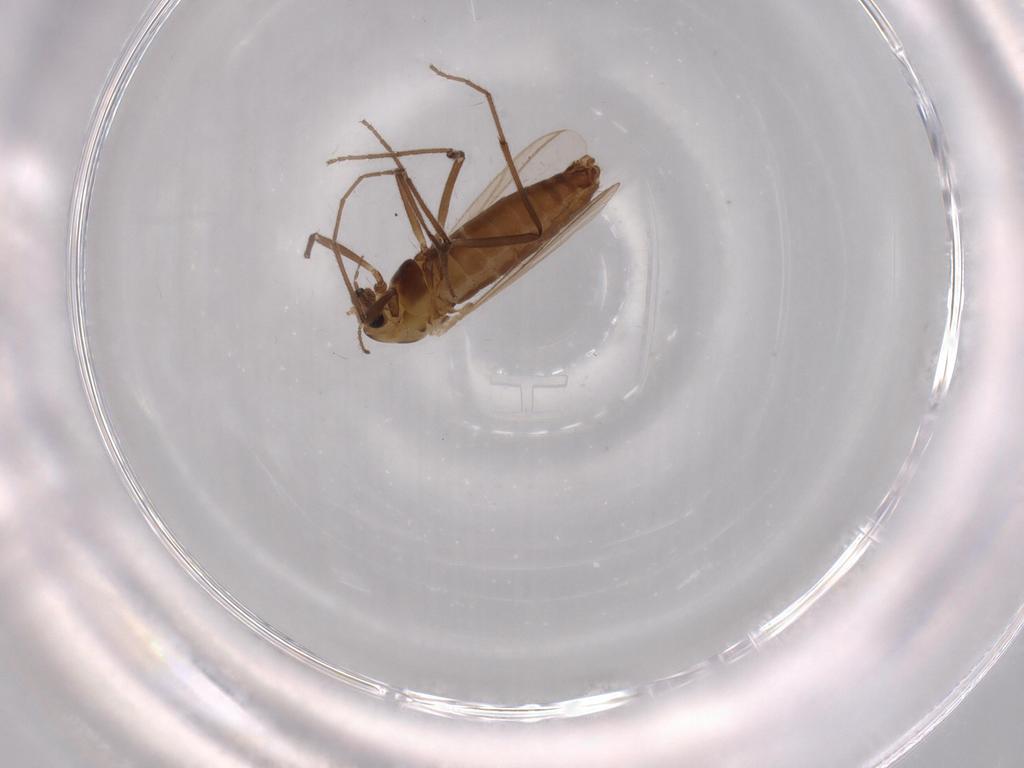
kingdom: Animalia
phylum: Arthropoda
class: Insecta
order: Diptera
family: Chironomidae
